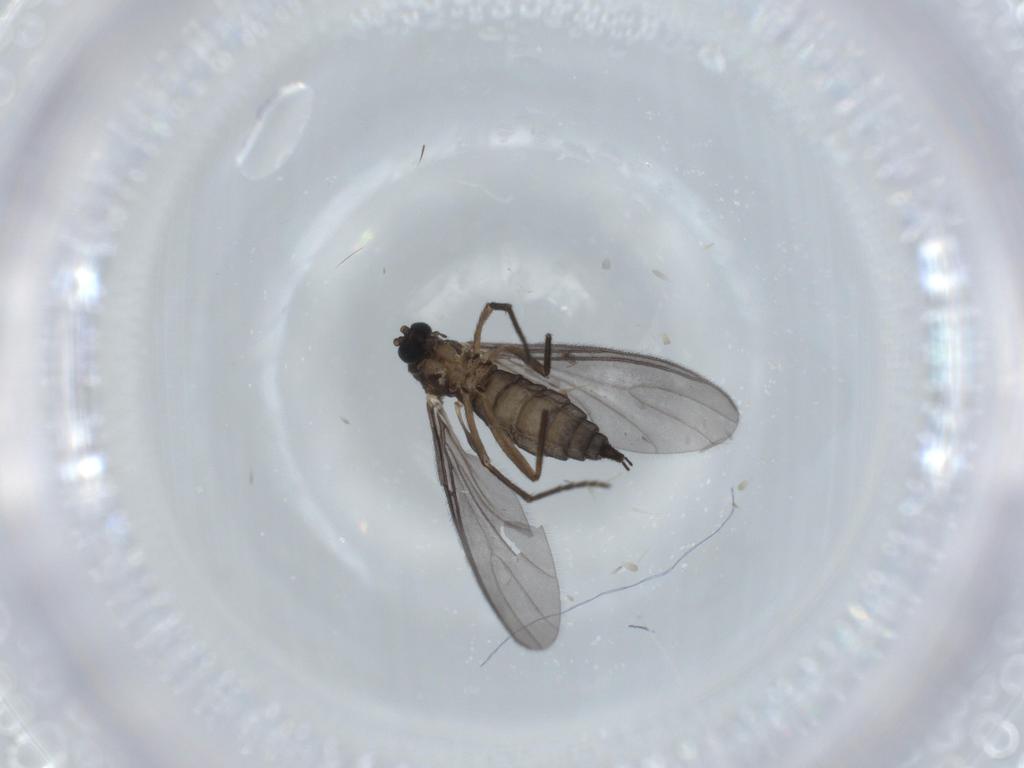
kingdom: Animalia
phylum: Arthropoda
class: Insecta
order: Diptera
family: Sciaridae
